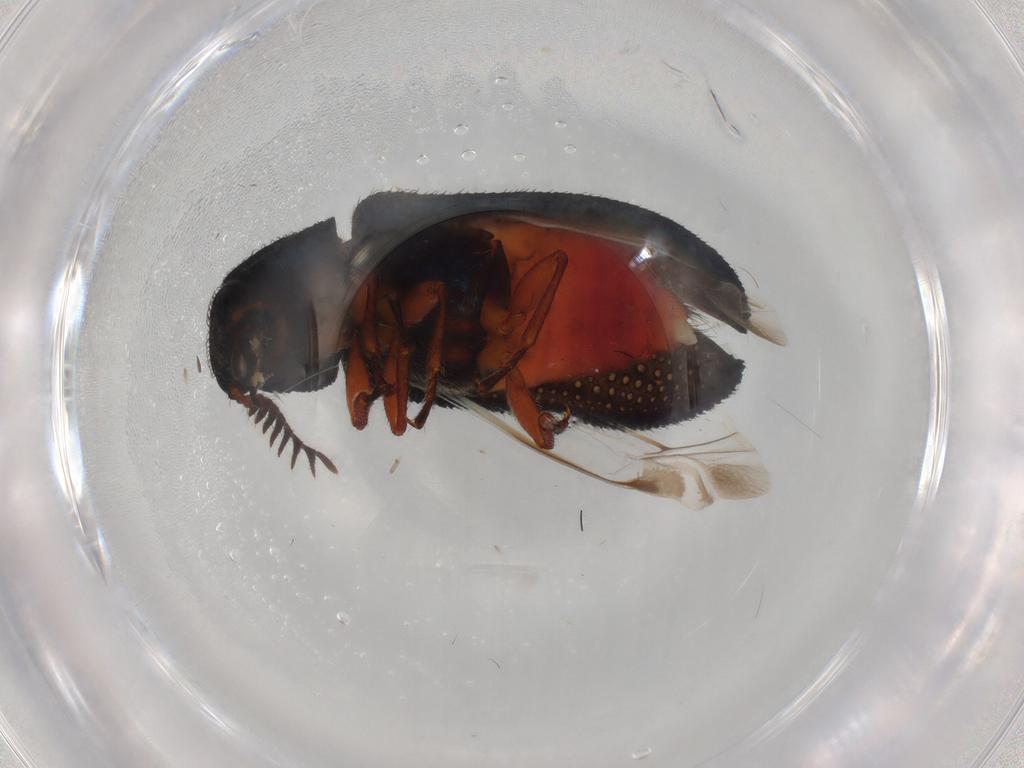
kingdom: Animalia
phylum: Arthropoda
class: Insecta
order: Coleoptera
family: Melyridae
